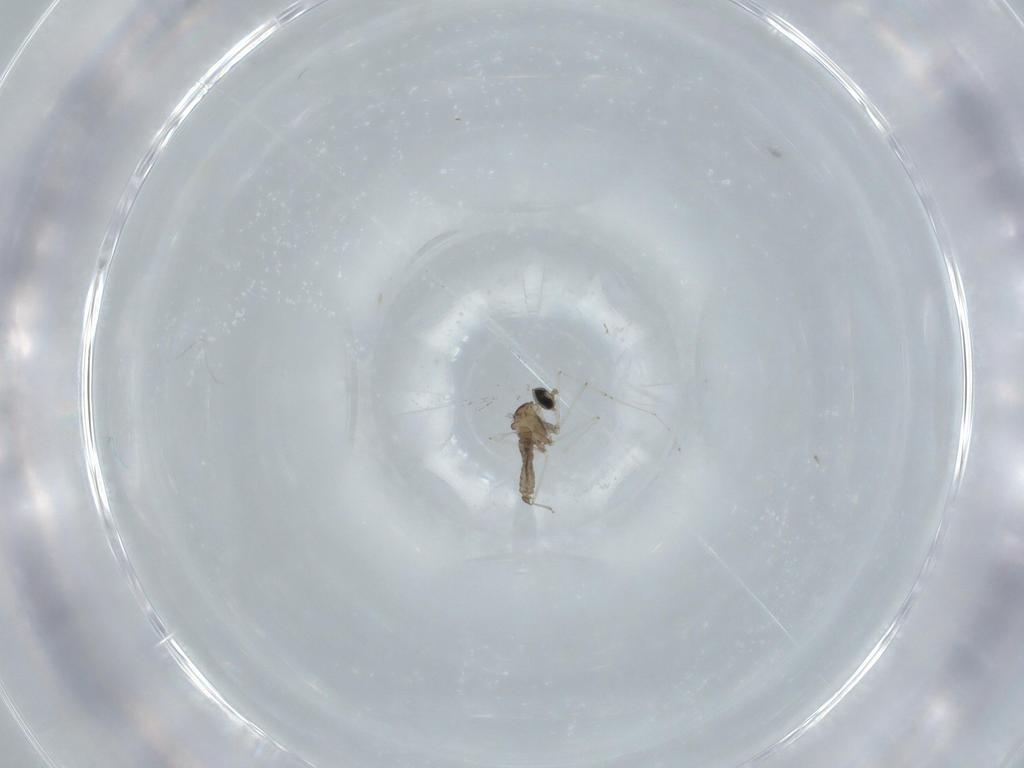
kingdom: Animalia
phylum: Arthropoda
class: Insecta
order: Diptera
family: Cecidomyiidae
